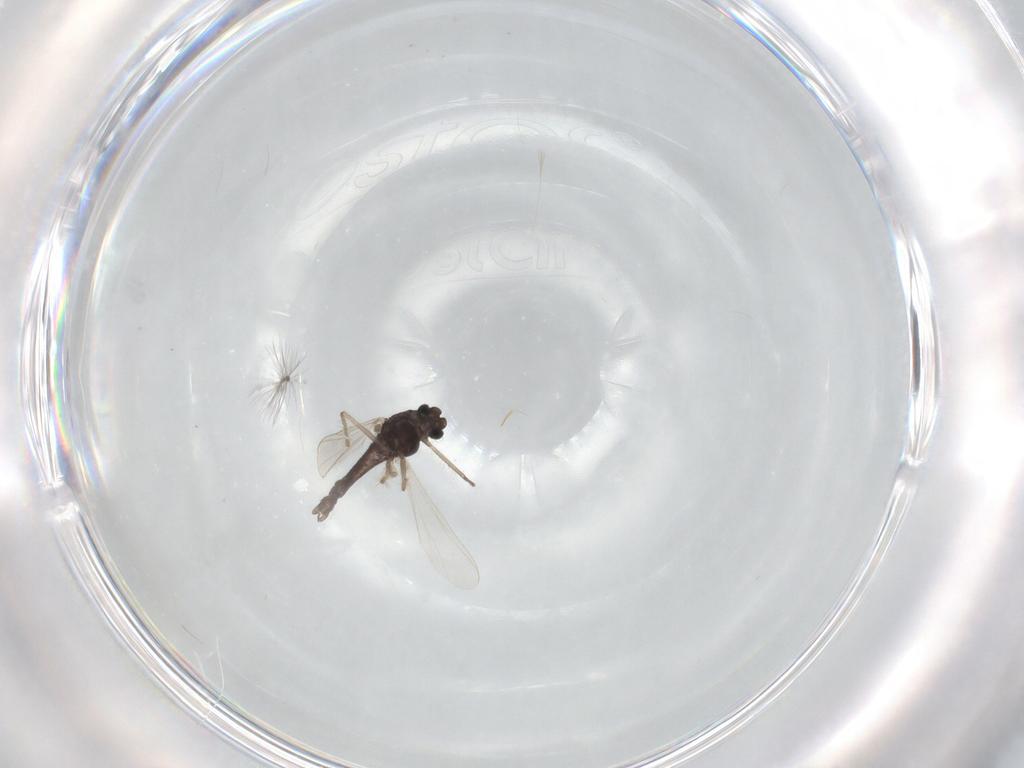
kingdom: Animalia
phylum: Arthropoda
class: Insecta
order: Diptera
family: Chironomidae
